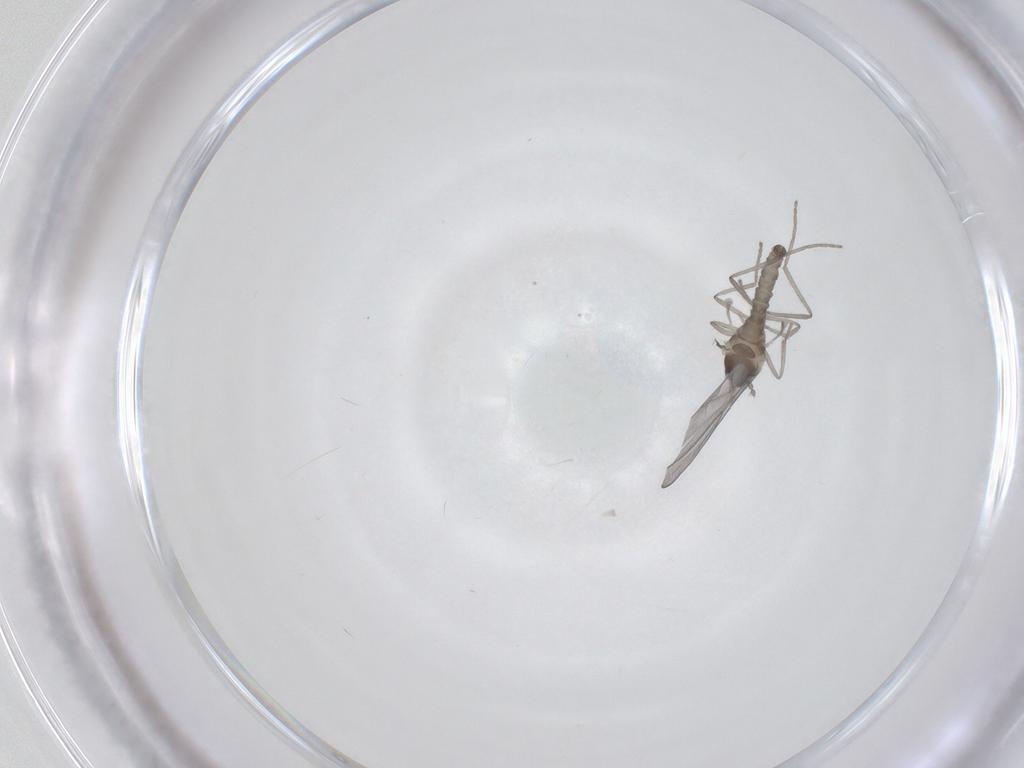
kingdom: Animalia
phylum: Arthropoda
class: Insecta
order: Diptera
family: Cecidomyiidae
